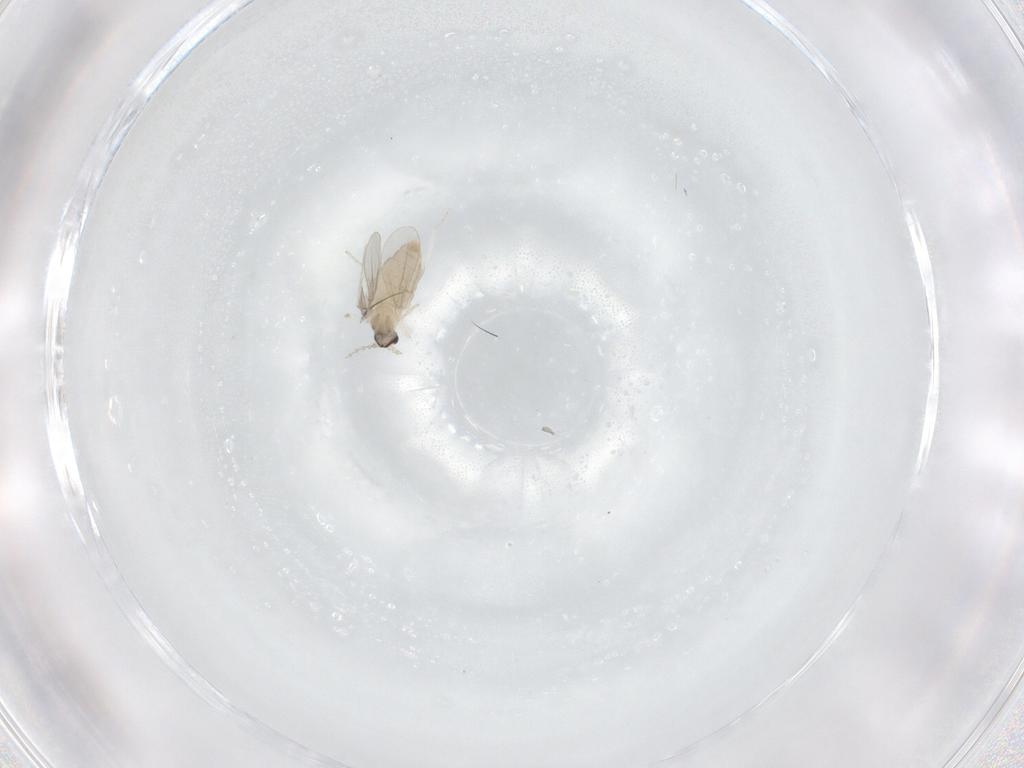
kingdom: Animalia
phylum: Arthropoda
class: Insecta
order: Diptera
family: Cecidomyiidae
